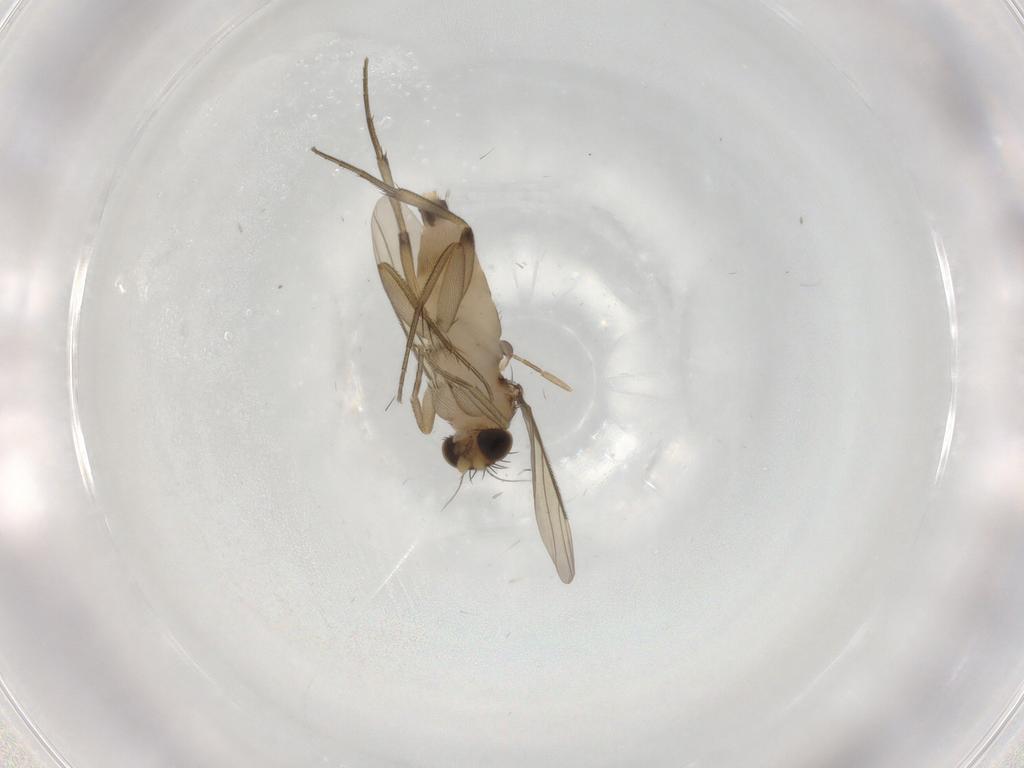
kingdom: Animalia
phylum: Arthropoda
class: Insecta
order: Diptera
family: Phoridae
